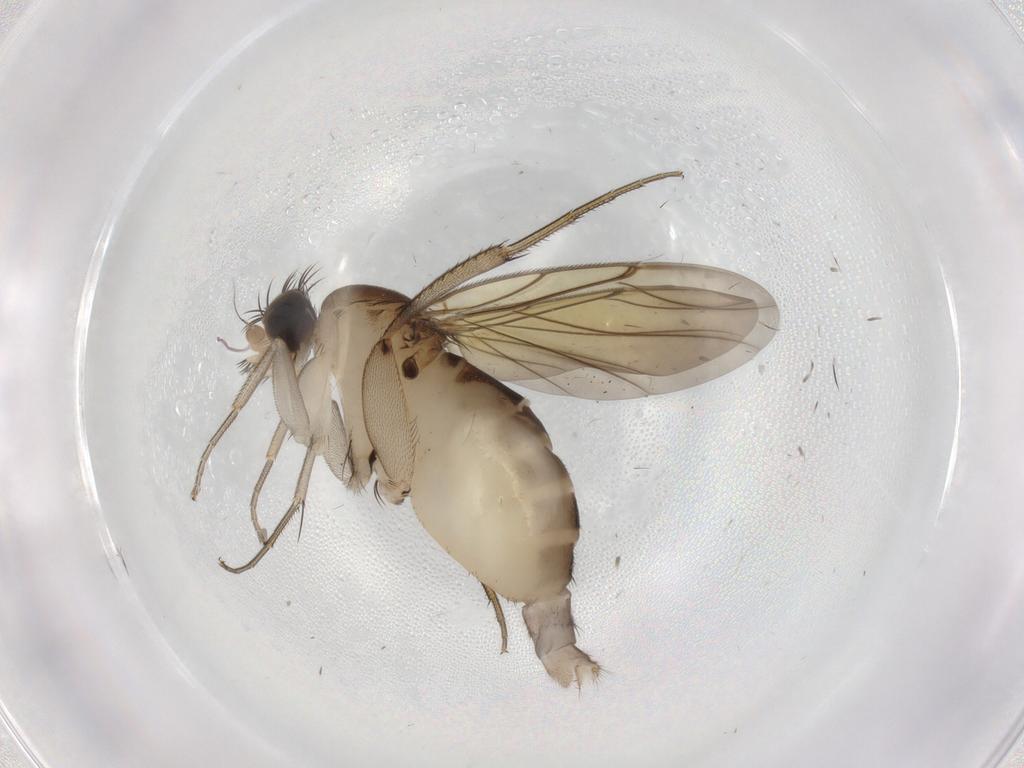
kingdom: Animalia
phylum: Arthropoda
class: Insecta
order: Diptera
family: Phoridae
